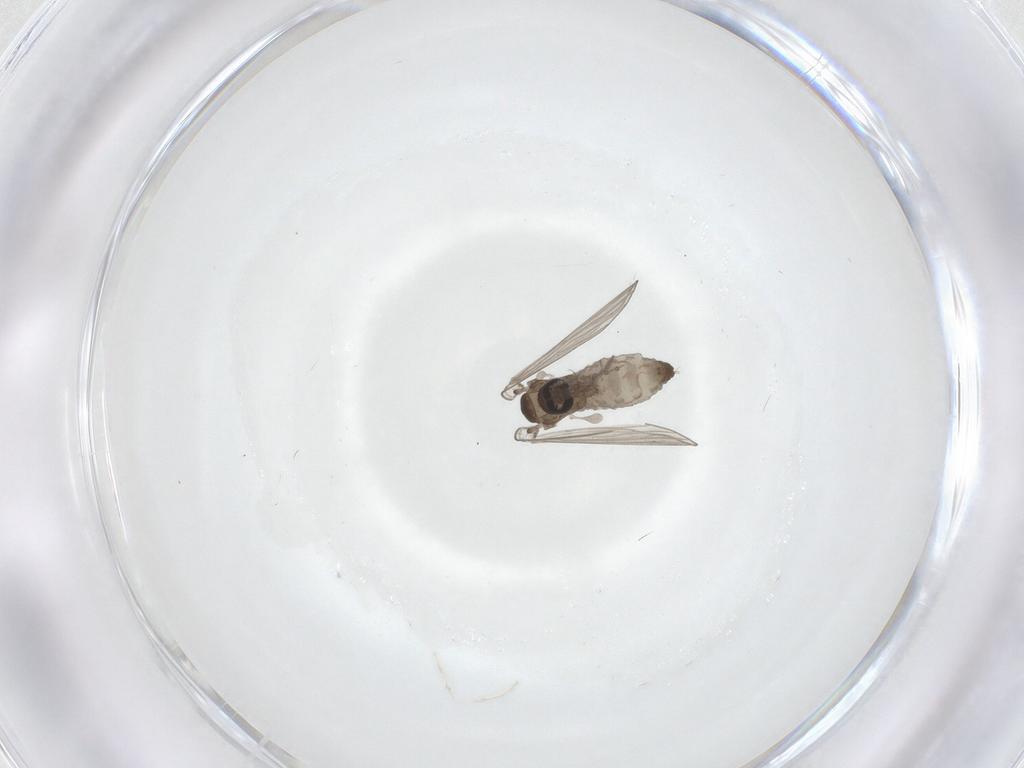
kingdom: Animalia
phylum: Arthropoda
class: Insecta
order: Diptera
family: Psychodidae
